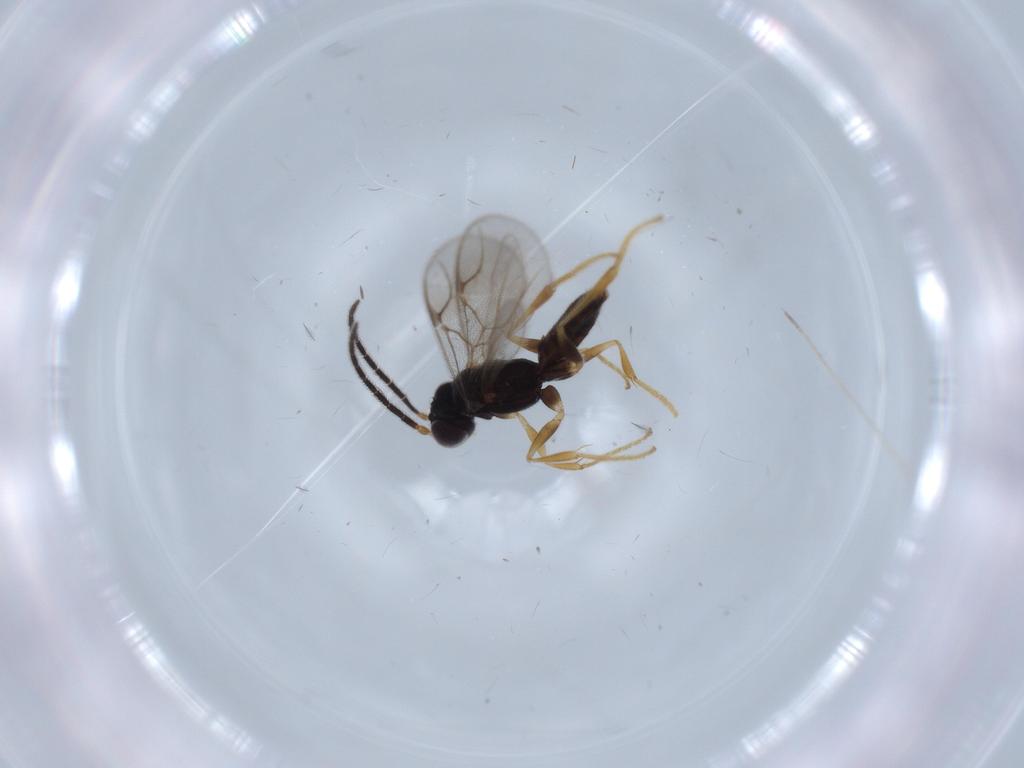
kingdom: Animalia
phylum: Arthropoda
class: Insecta
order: Hymenoptera
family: Dryinidae
